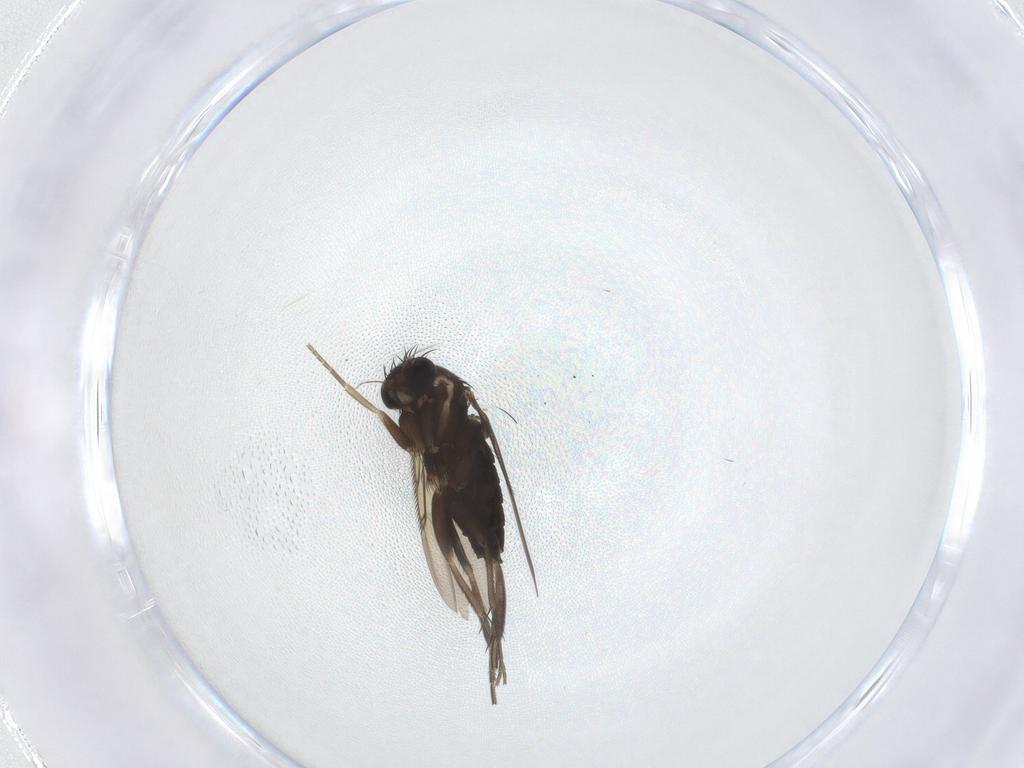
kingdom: Animalia
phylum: Arthropoda
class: Insecta
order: Diptera
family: Phoridae
